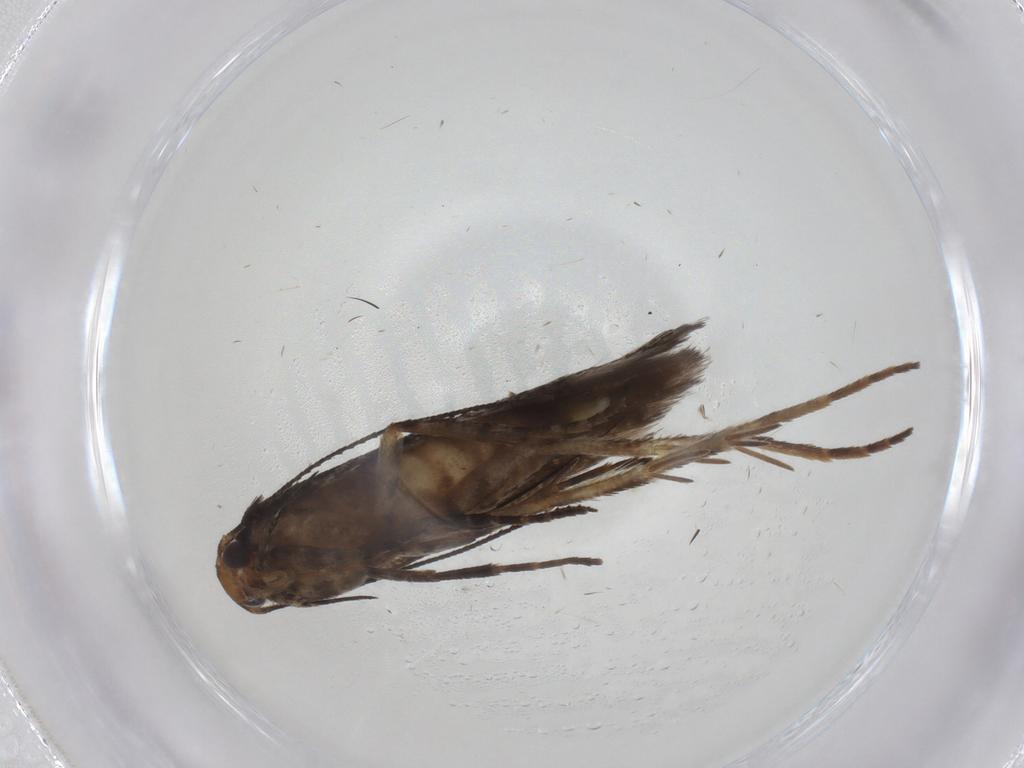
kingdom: Animalia
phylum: Arthropoda
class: Insecta
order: Lepidoptera
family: Gelechiidae
